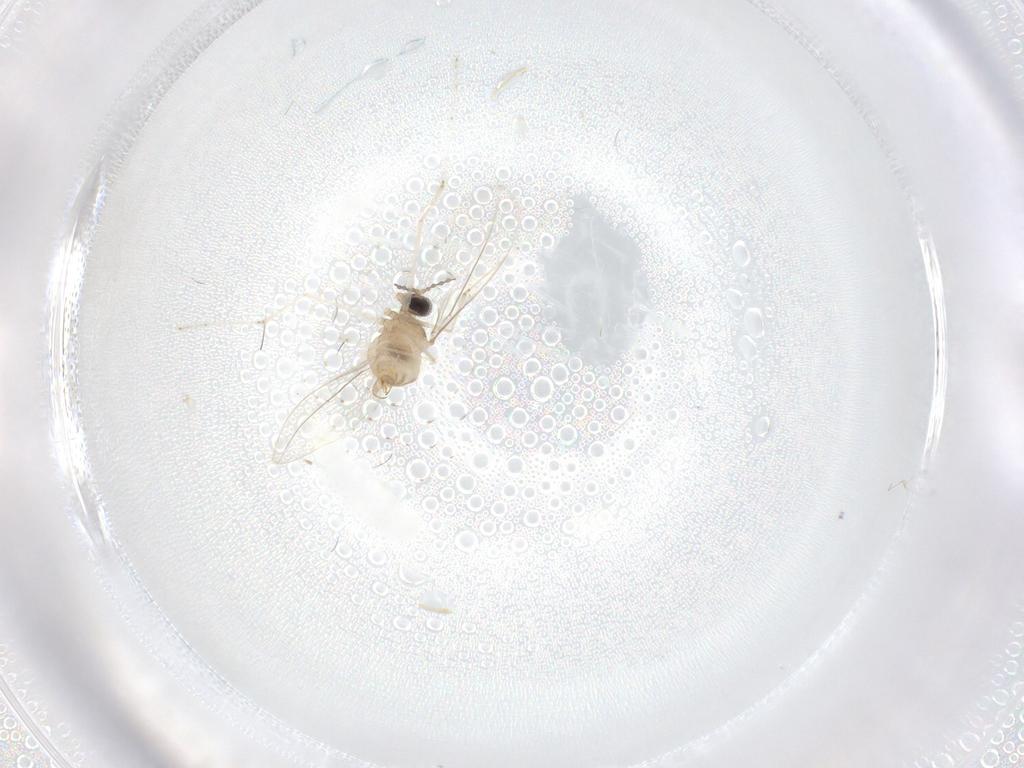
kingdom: Animalia
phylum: Arthropoda
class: Insecta
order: Diptera
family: Cecidomyiidae
